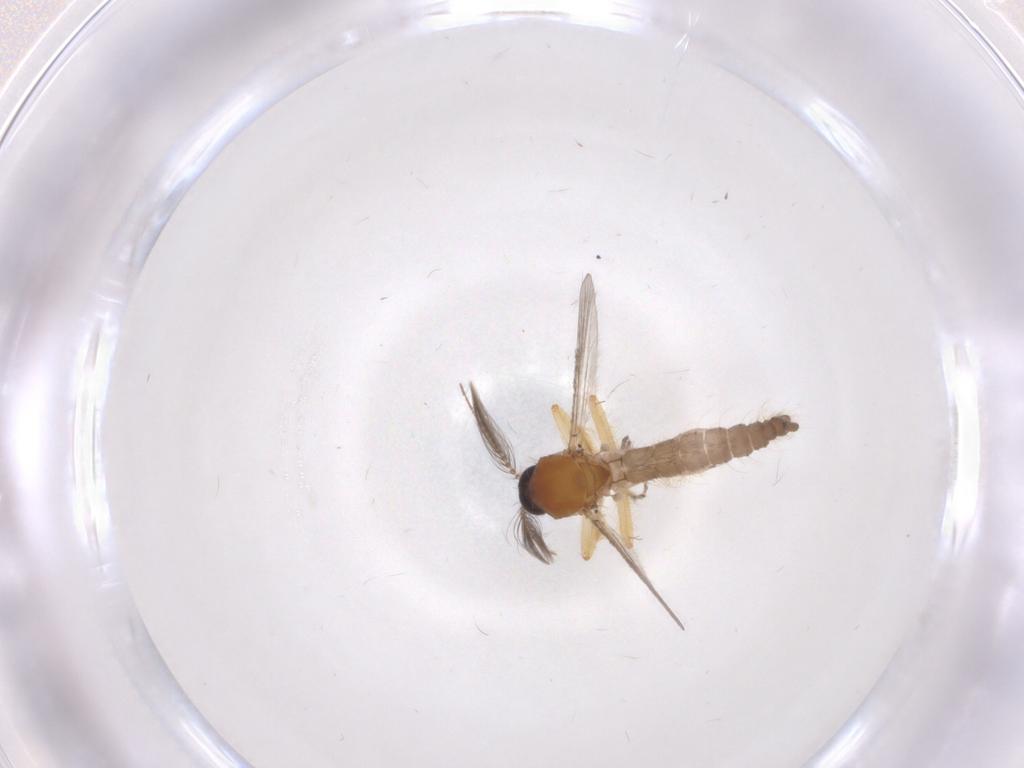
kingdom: Animalia
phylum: Arthropoda
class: Insecta
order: Diptera
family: Ceratopogonidae
